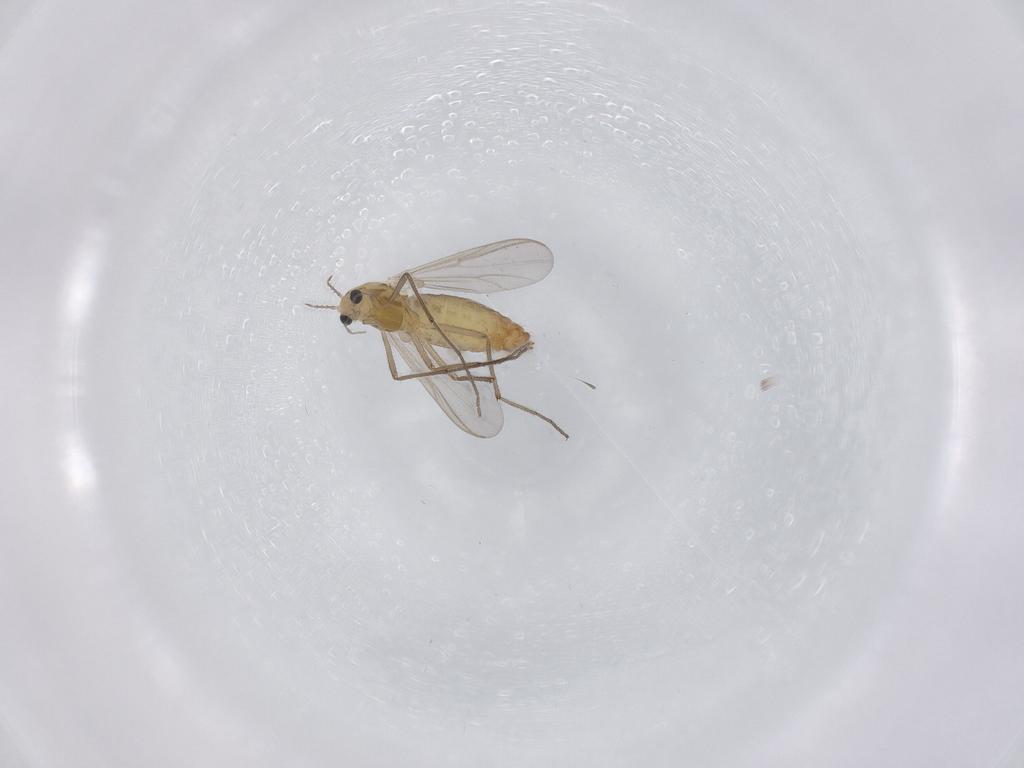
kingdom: Animalia
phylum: Arthropoda
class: Insecta
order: Diptera
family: Chironomidae
